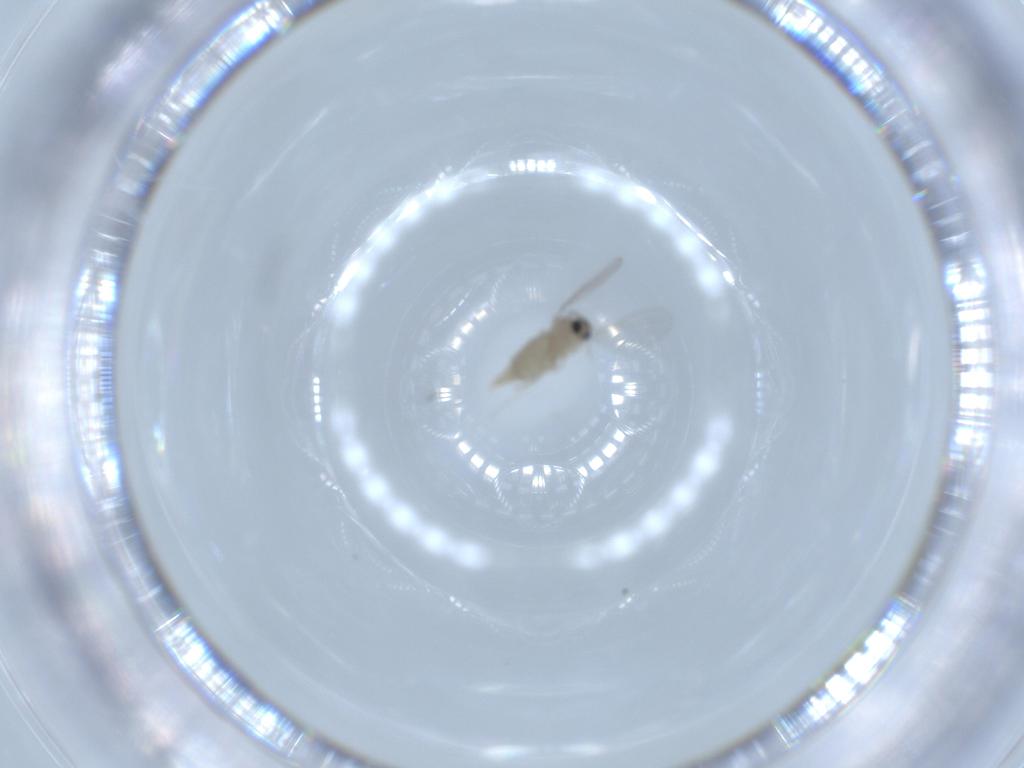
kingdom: Animalia
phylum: Arthropoda
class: Insecta
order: Diptera
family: Cecidomyiidae
